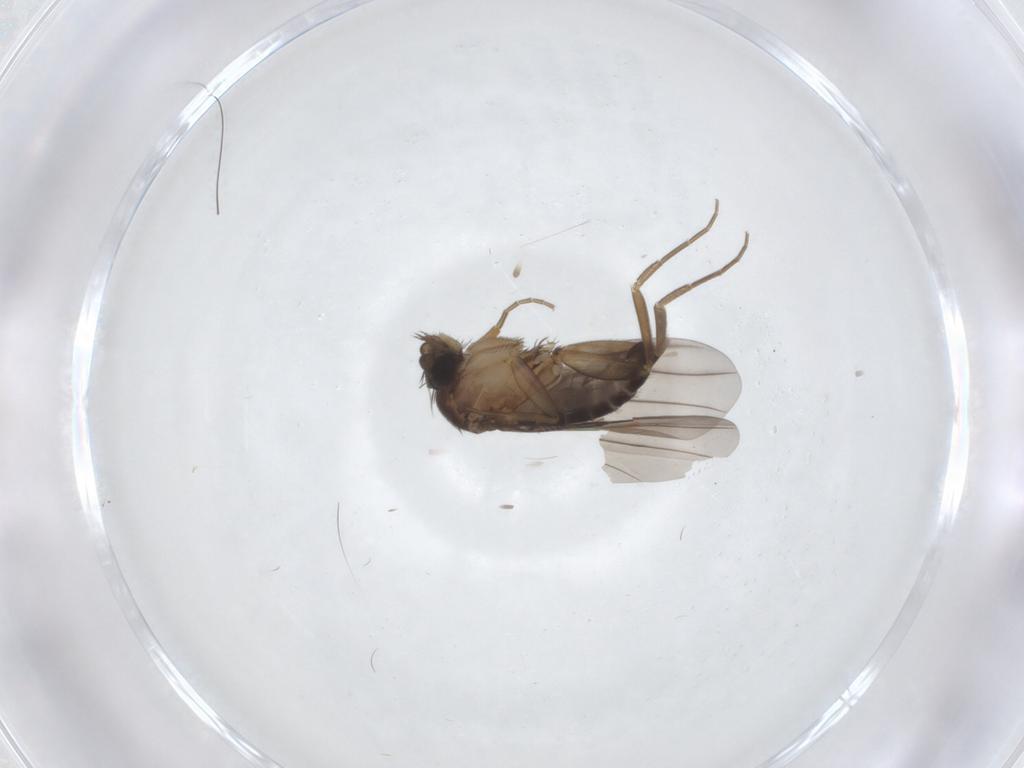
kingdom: Animalia
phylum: Arthropoda
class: Insecta
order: Diptera
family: Phoridae
